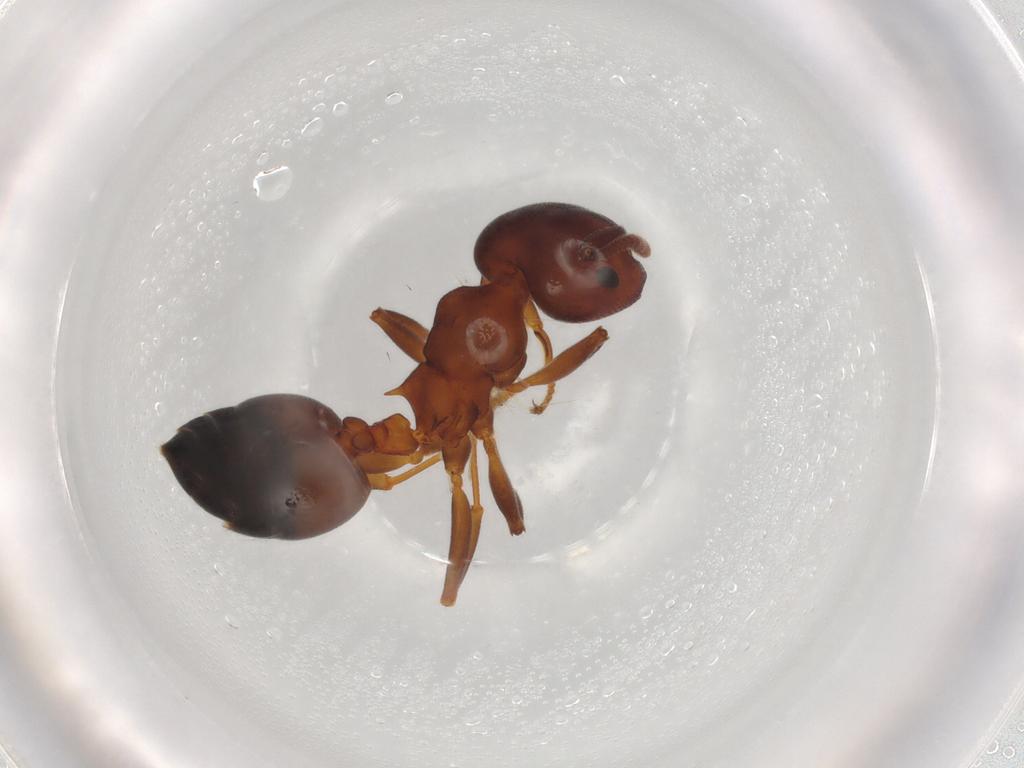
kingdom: Animalia
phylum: Arthropoda
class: Insecta
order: Hymenoptera
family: Formicidae
